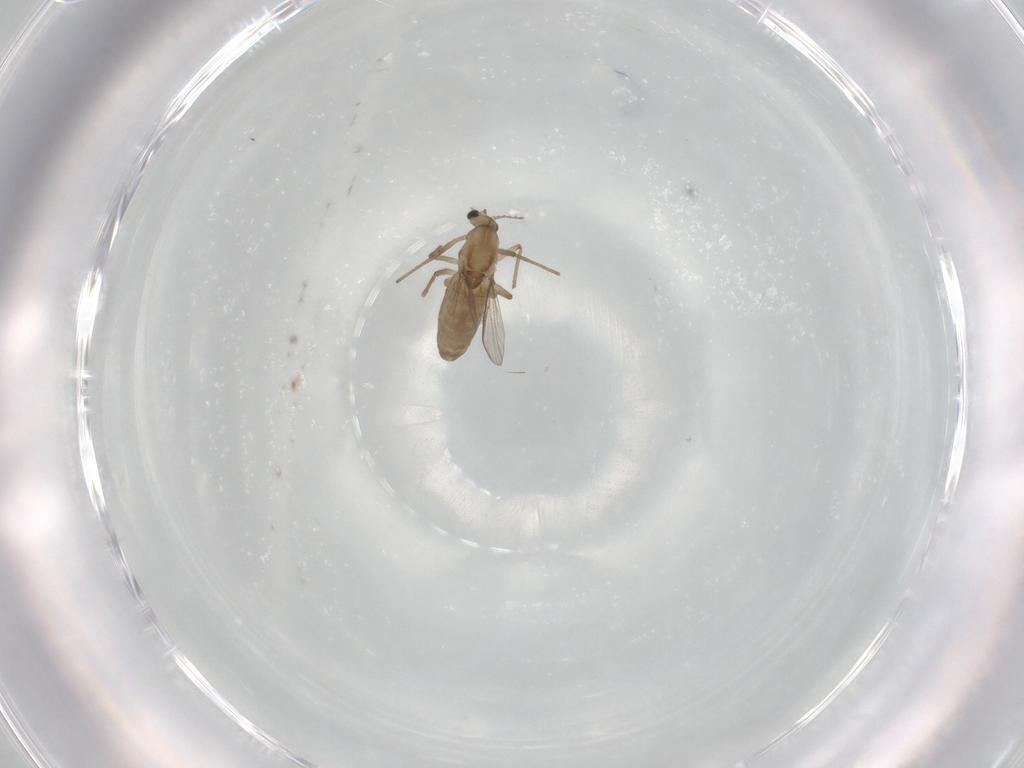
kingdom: Animalia
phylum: Arthropoda
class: Insecta
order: Diptera
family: Chironomidae
